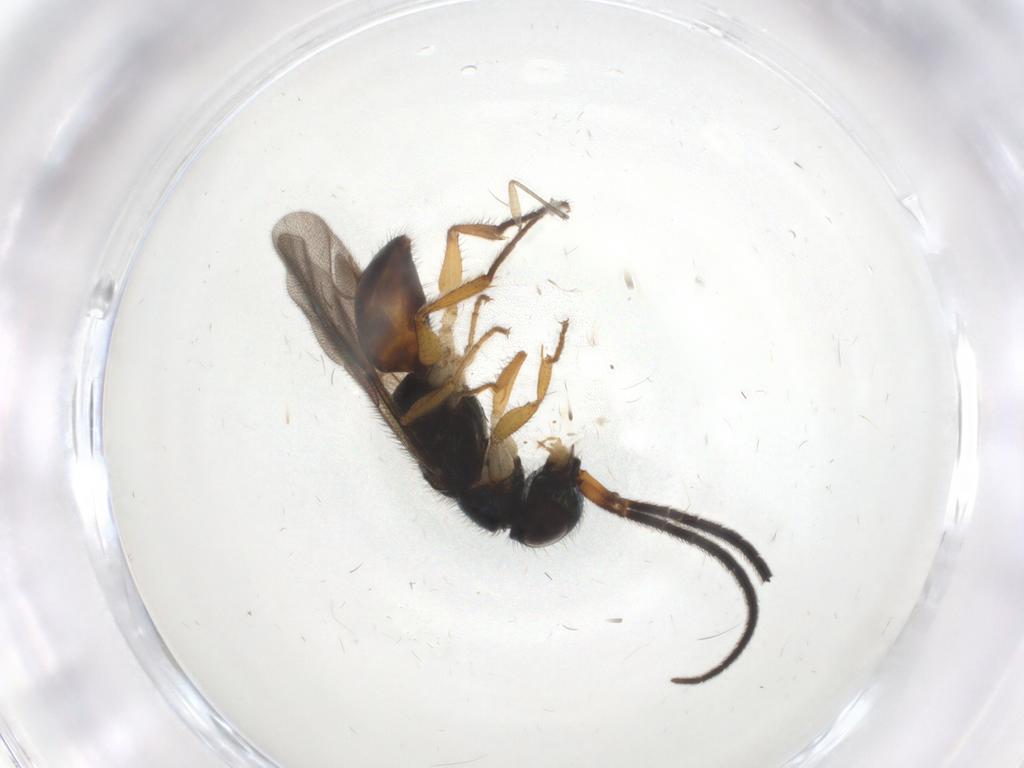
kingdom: Animalia
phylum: Arthropoda
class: Insecta
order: Hymenoptera
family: Chrysididae
